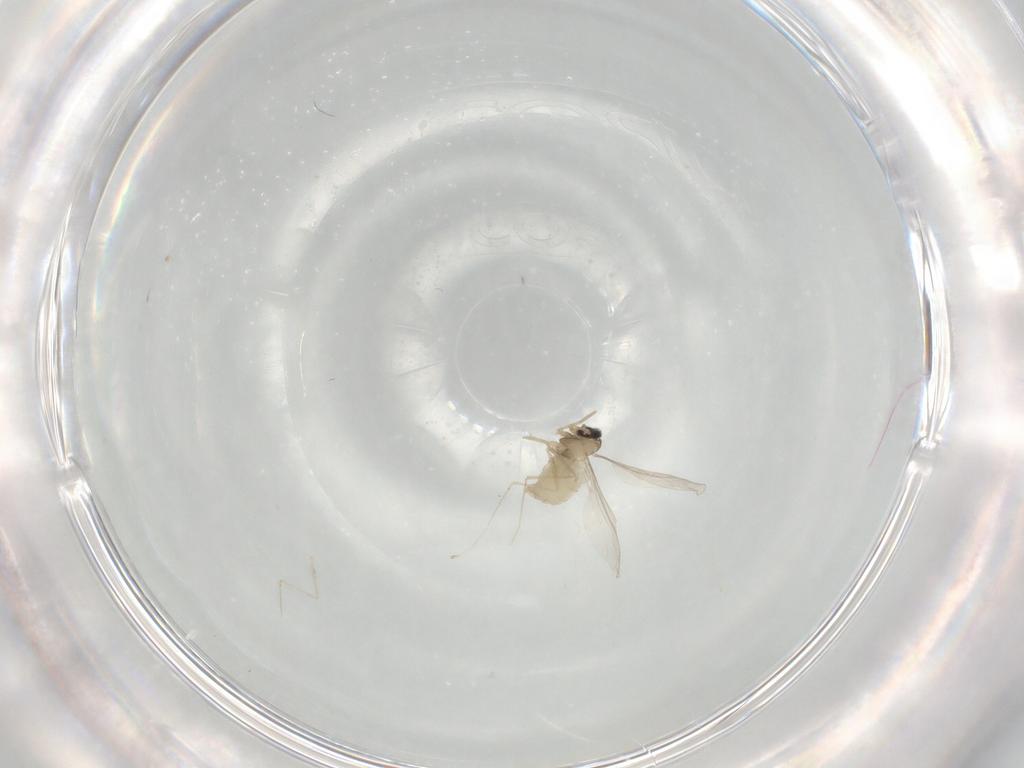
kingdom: Animalia
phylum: Arthropoda
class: Insecta
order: Diptera
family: Cecidomyiidae
